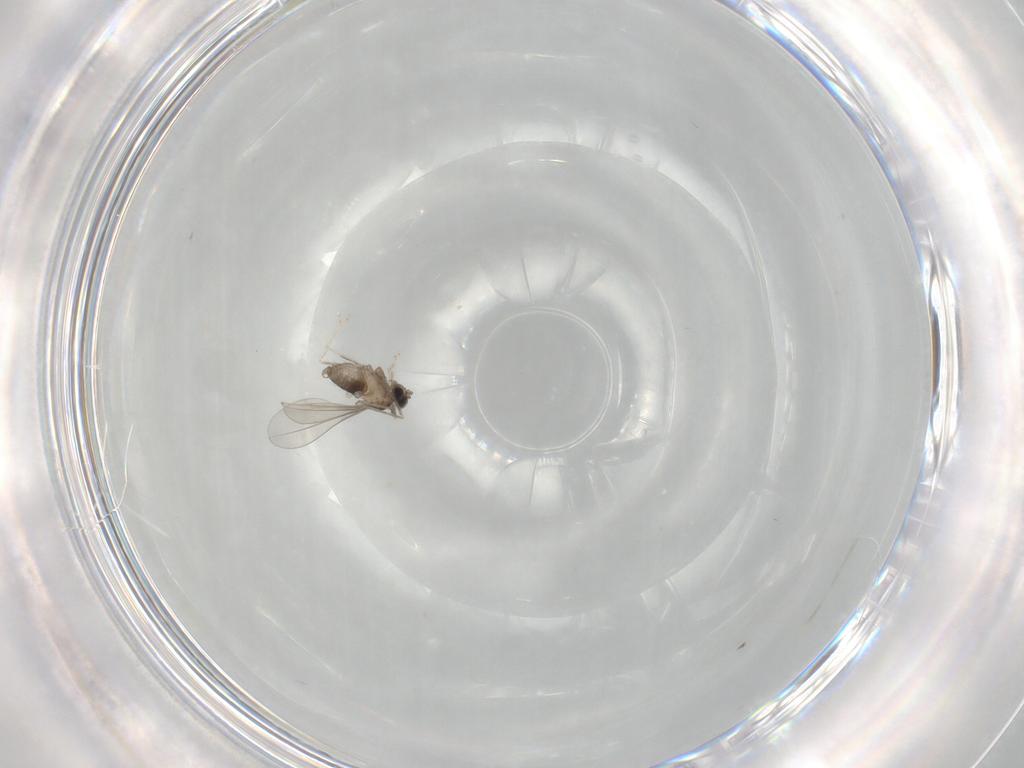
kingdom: Animalia
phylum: Arthropoda
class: Insecta
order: Diptera
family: Cecidomyiidae
